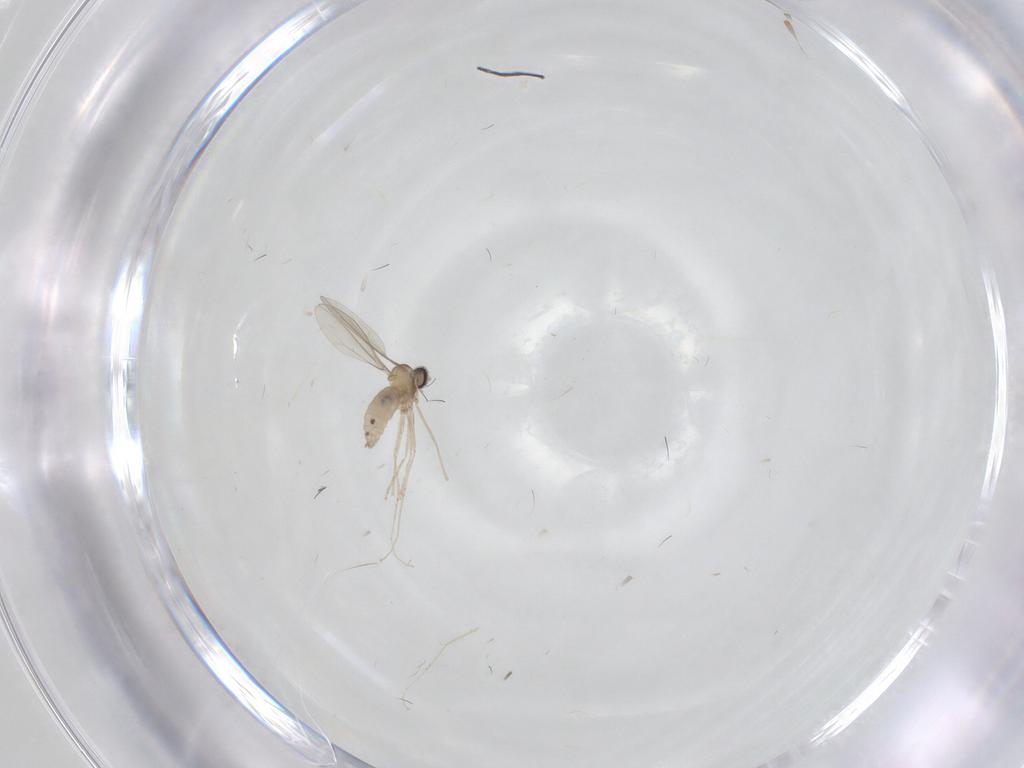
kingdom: Animalia
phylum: Arthropoda
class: Insecta
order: Diptera
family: Cecidomyiidae
